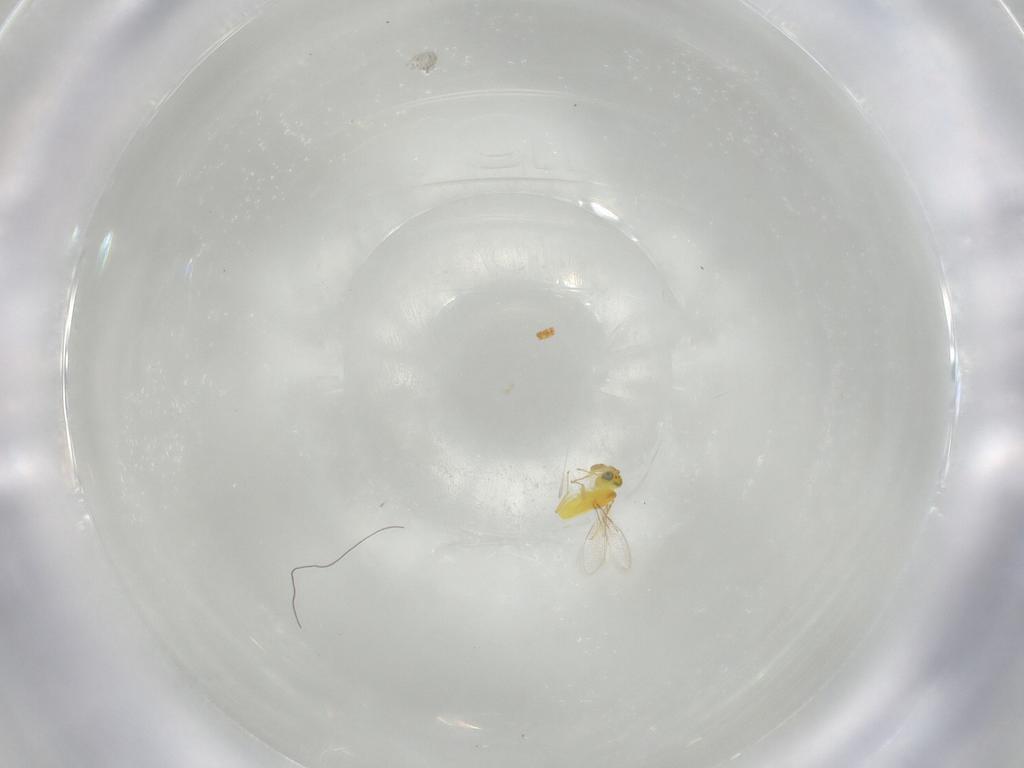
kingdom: Animalia
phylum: Arthropoda
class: Insecta
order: Hymenoptera
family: Aphelinidae
